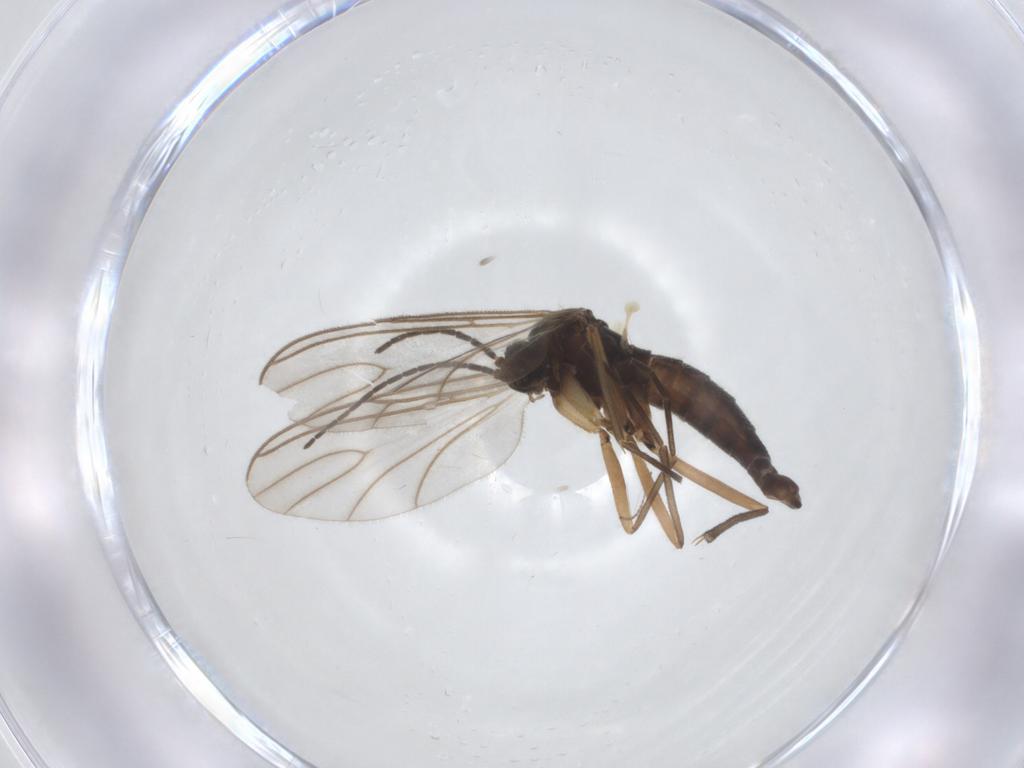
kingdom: Animalia
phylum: Arthropoda
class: Insecta
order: Diptera
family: Limoniidae
